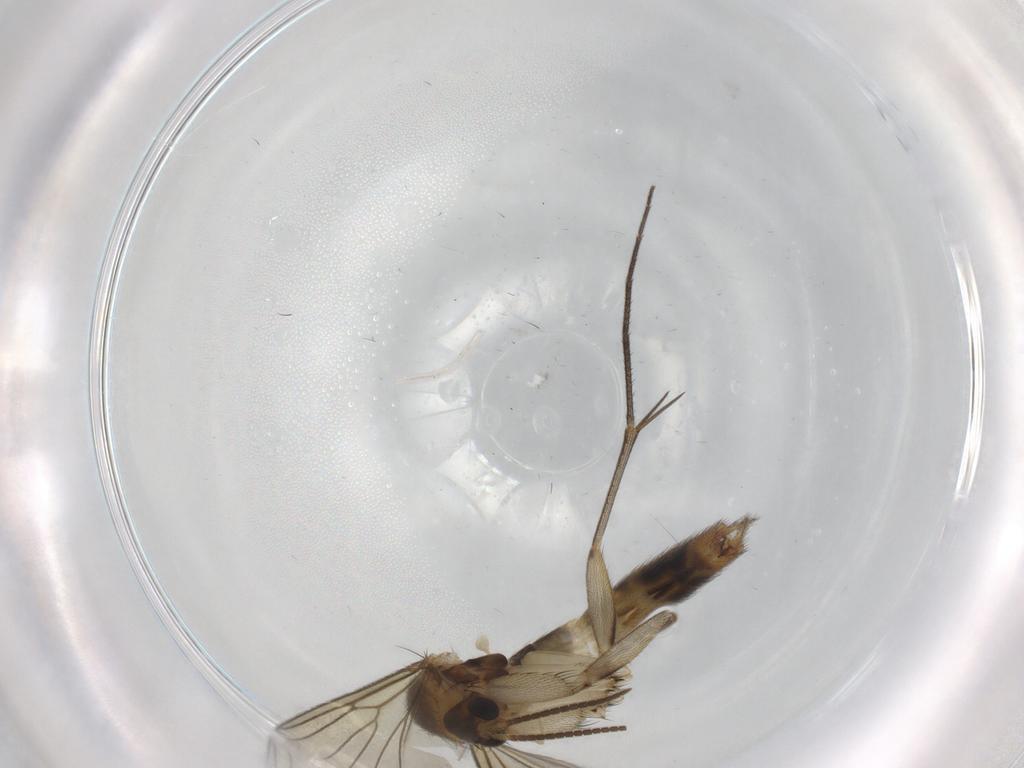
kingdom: Animalia
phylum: Arthropoda
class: Insecta
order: Diptera
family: Mycetophilidae
